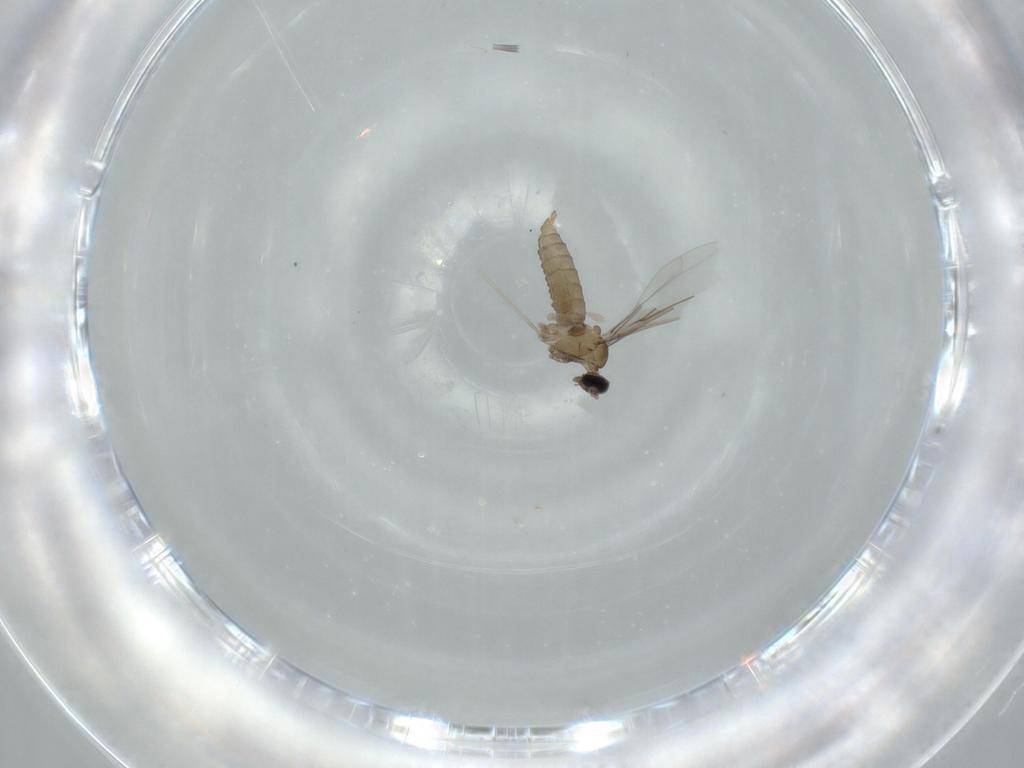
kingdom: Animalia
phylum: Arthropoda
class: Insecta
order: Diptera
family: Cecidomyiidae
